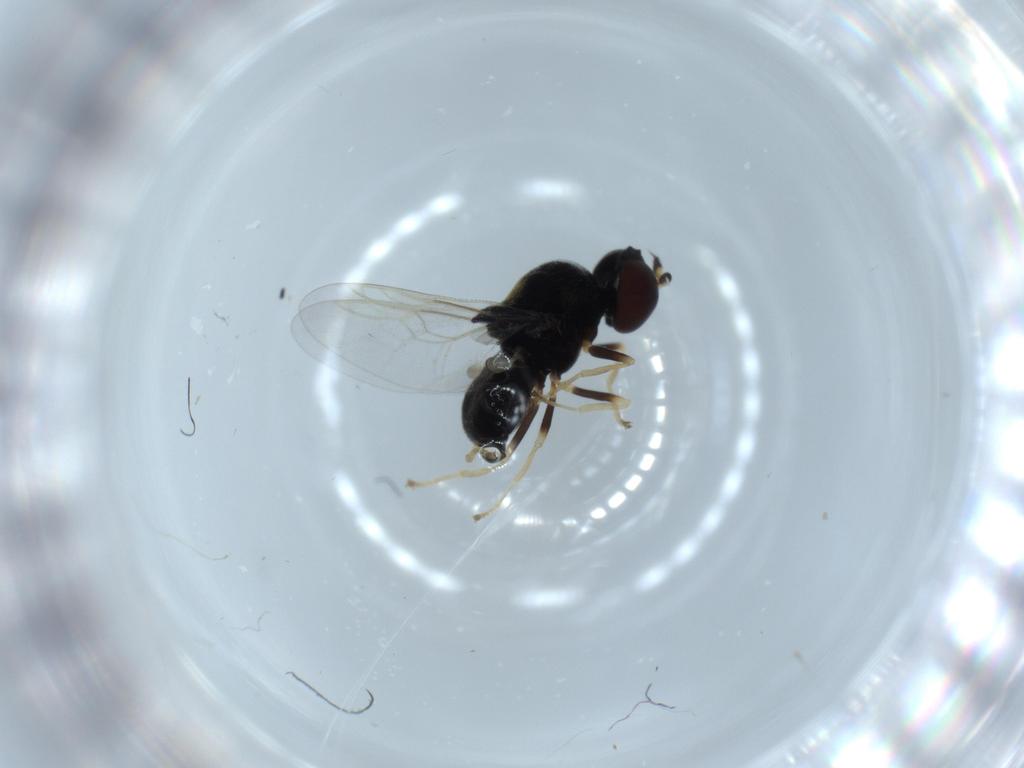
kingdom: Animalia
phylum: Arthropoda
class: Insecta
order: Diptera
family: Stratiomyidae
